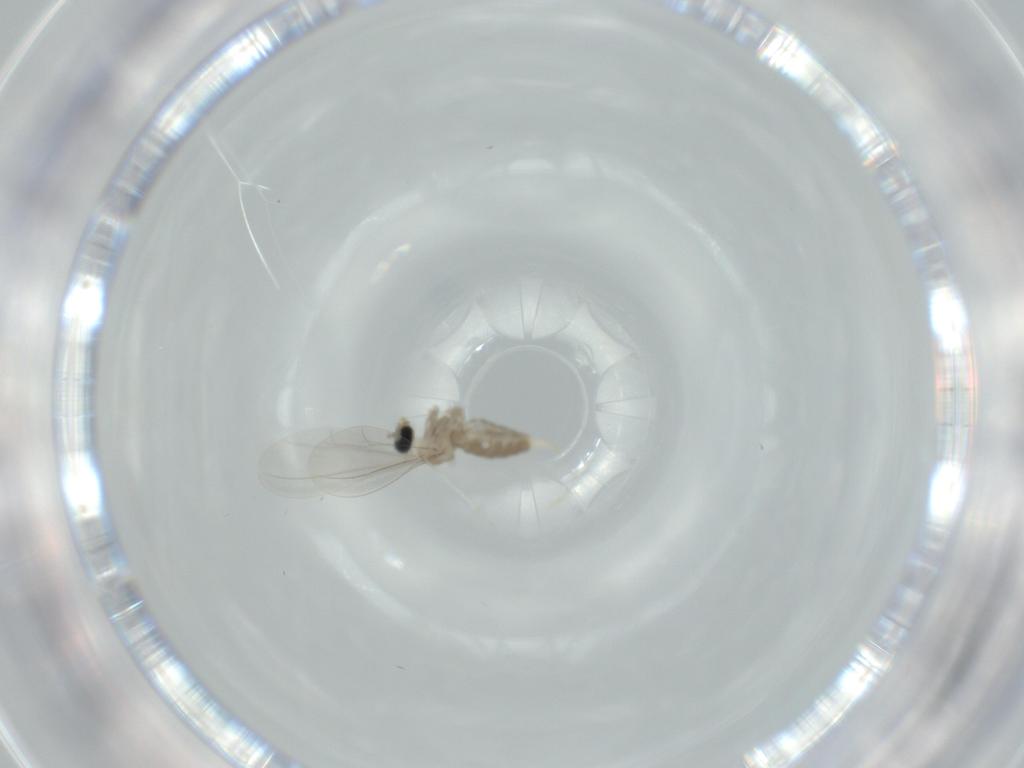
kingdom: Animalia
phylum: Arthropoda
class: Insecta
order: Diptera
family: Cecidomyiidae
